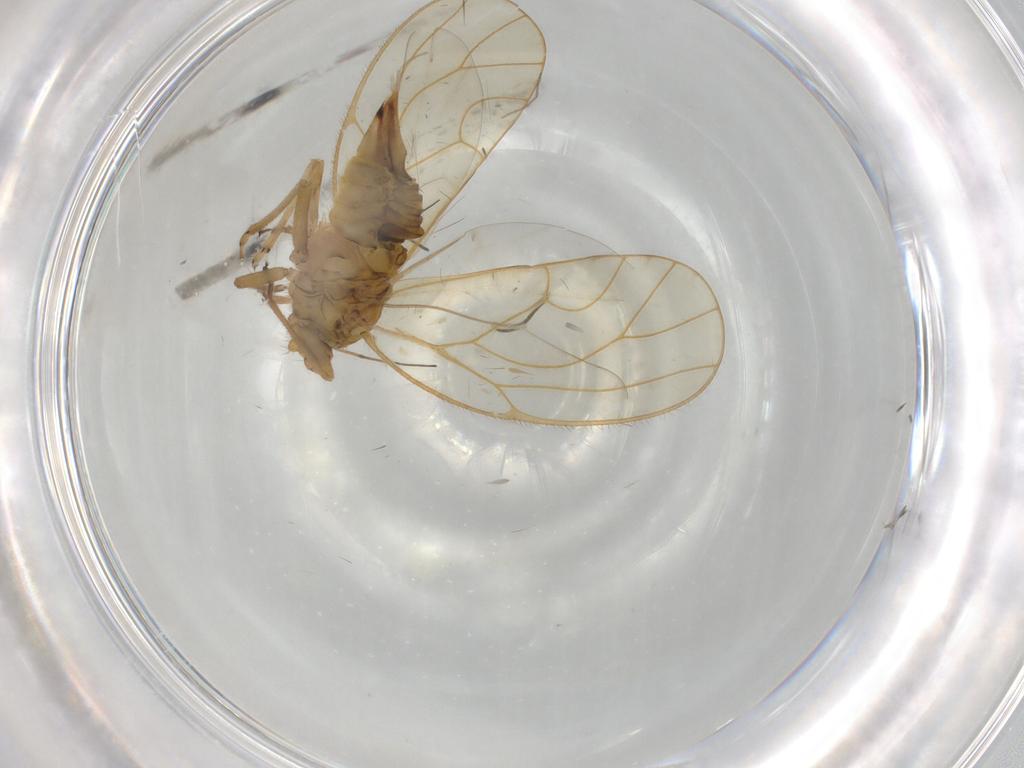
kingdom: Animalia
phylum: Arthropoda
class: Insecta
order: Hemiptera
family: Psyllidae
